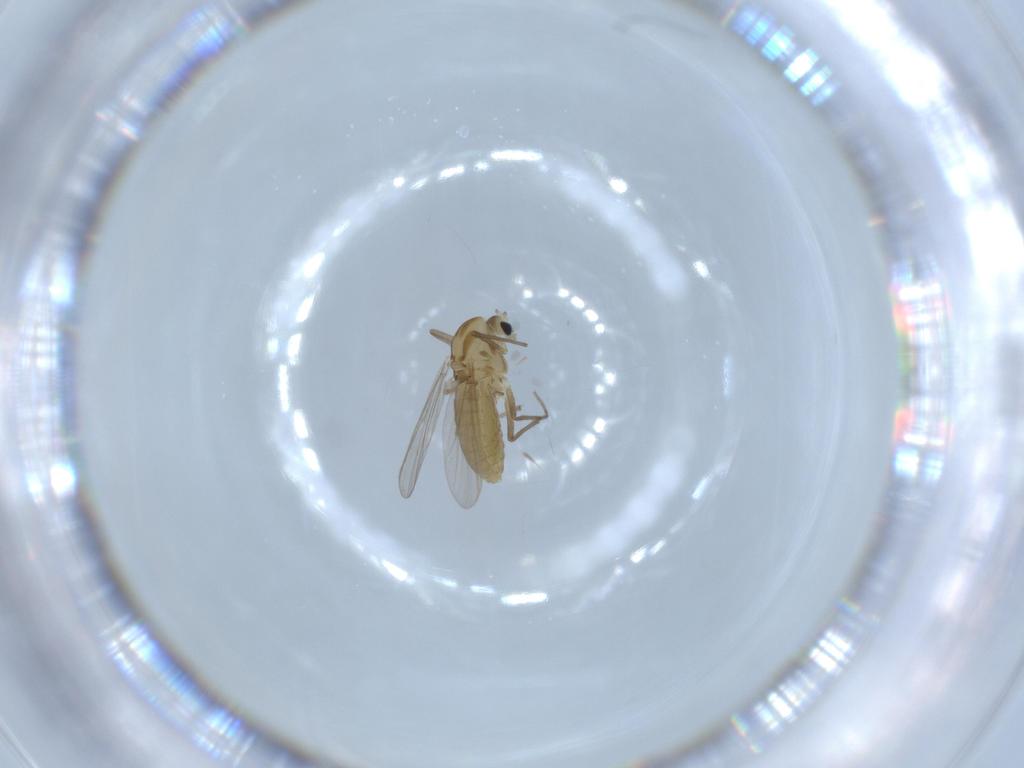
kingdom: Animalia
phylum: Arthropoda
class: Insecta
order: Diptera
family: Chironomidae
